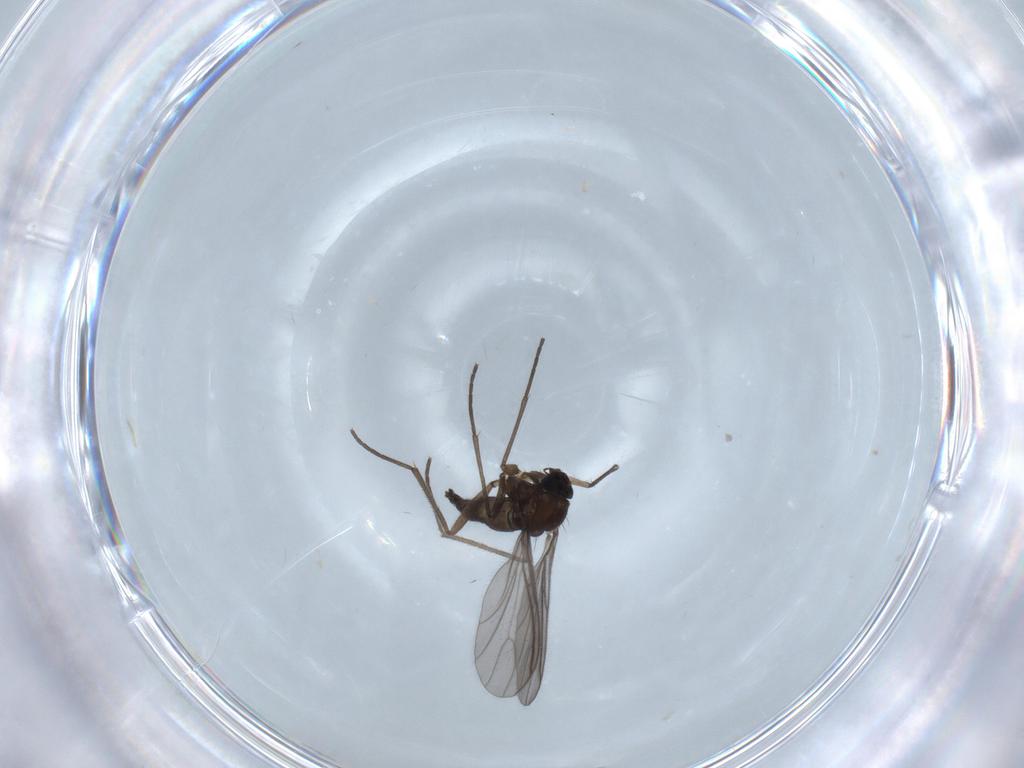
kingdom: Animalia
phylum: Arthropoda
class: Insecta
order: Diptera
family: Sciaridae
